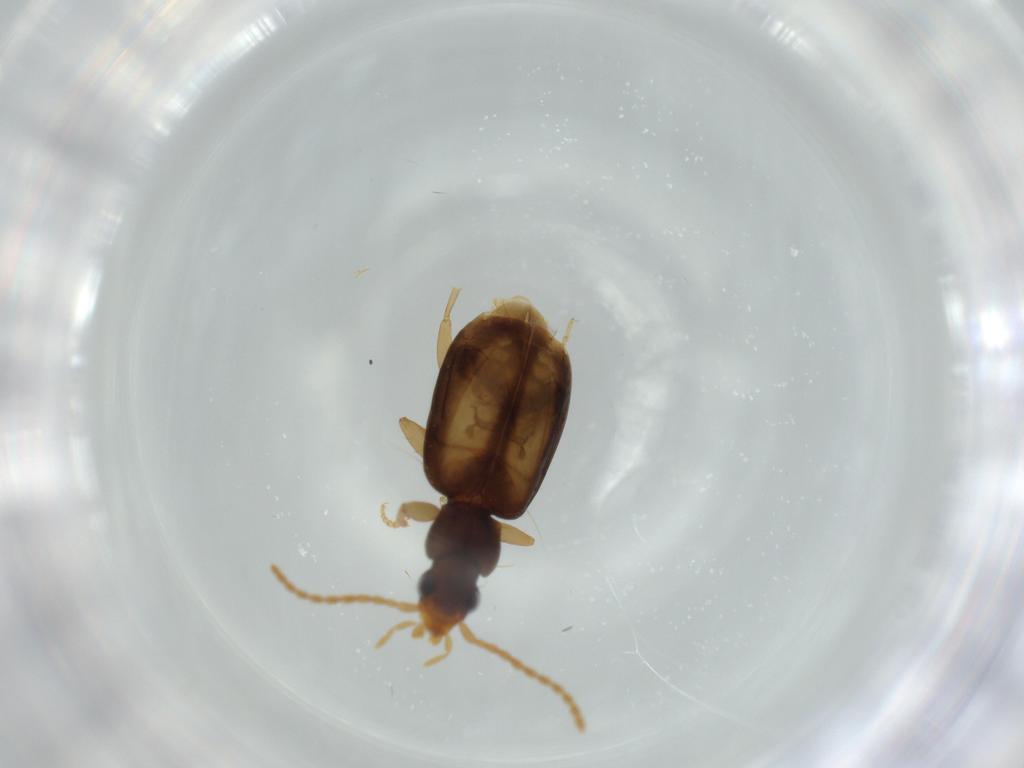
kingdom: Animalia
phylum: Arthropoda
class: Insecta
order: Coleoptera
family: Carabidae
